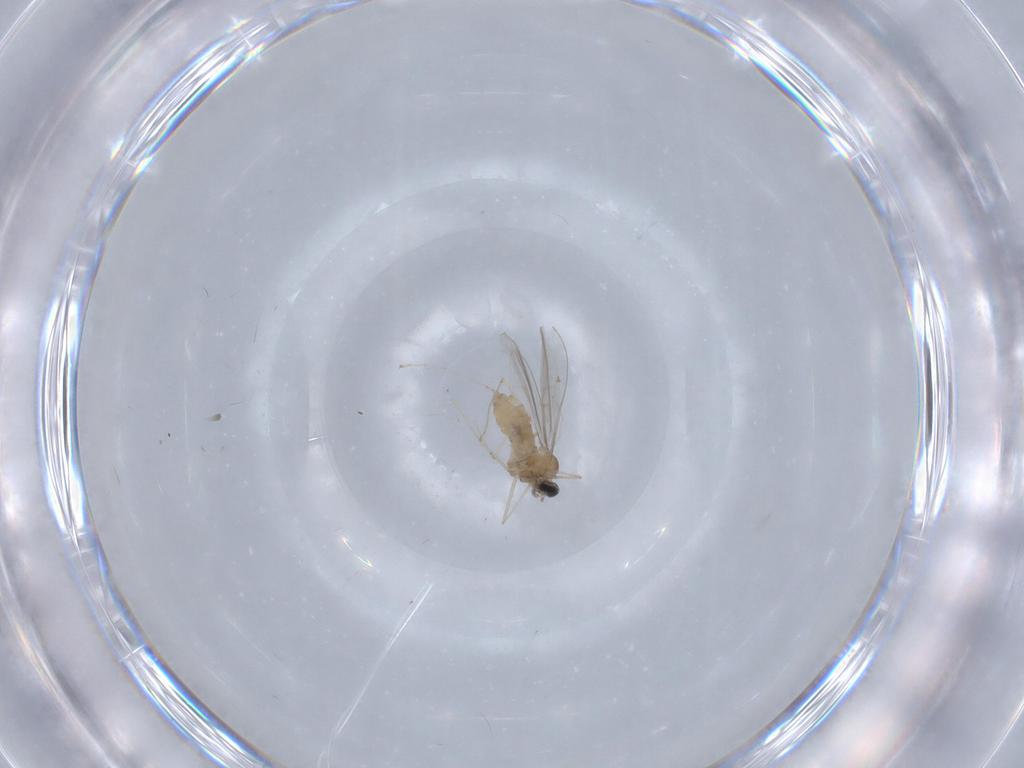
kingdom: Animalia
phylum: Arthropoda
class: Insecta
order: Diptera
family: Cecidomyiidae
